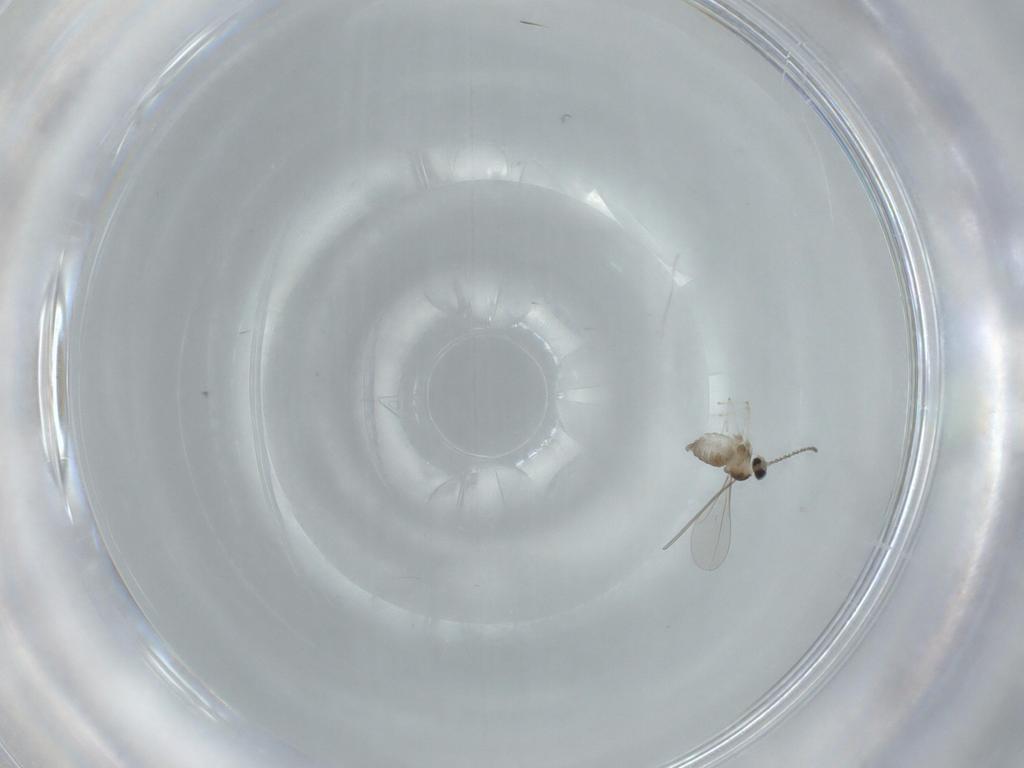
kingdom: Animalia
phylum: Arthropoda
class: Insecta
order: Diptera
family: Cecidomyiidae
